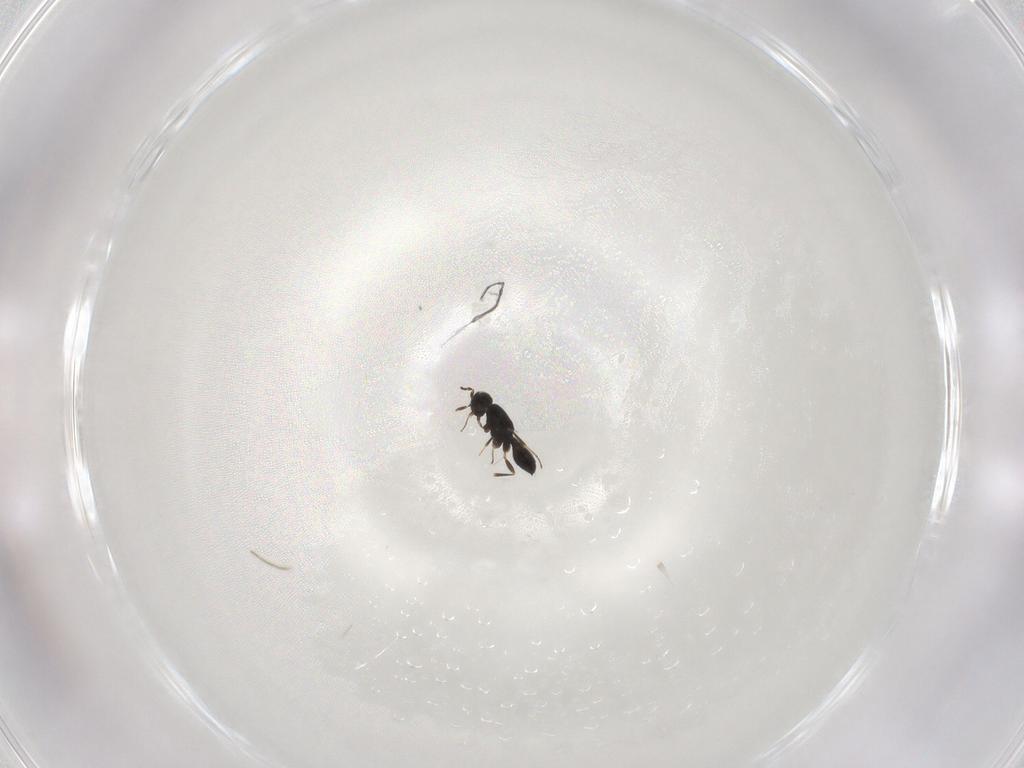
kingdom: Animalia
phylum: Arthropoda
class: Insecta
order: Hymenoptera
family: Scelionidae
